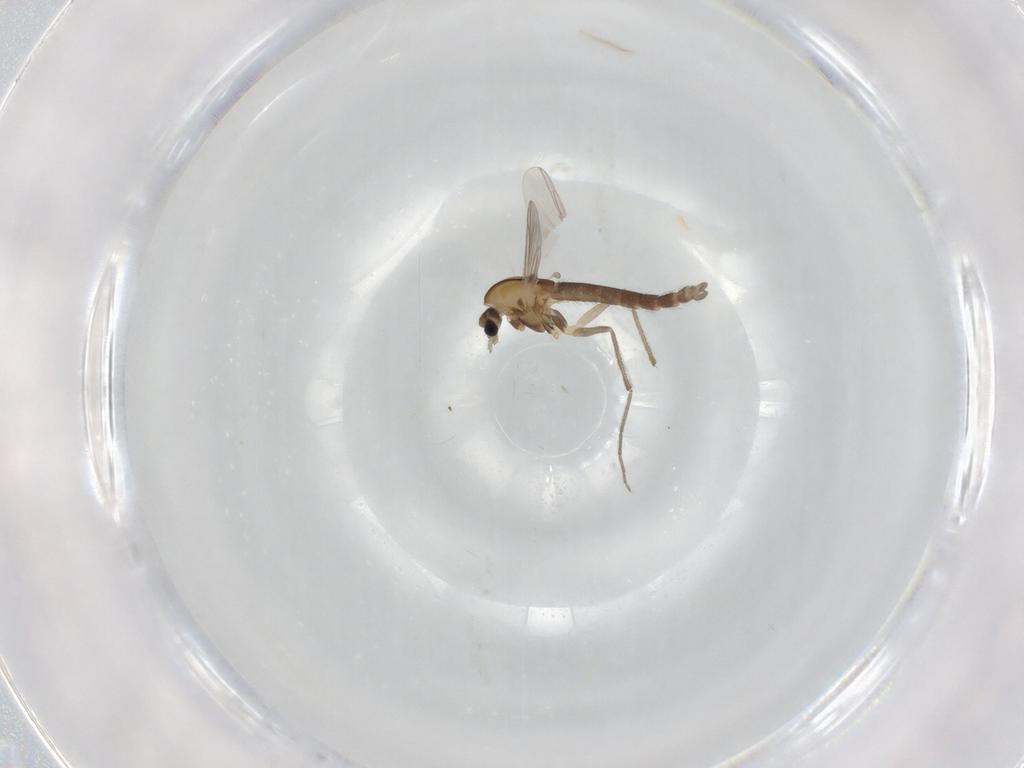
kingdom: Animalia
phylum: Arthropoda
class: Insecta
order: Diptera
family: Chironomidae
